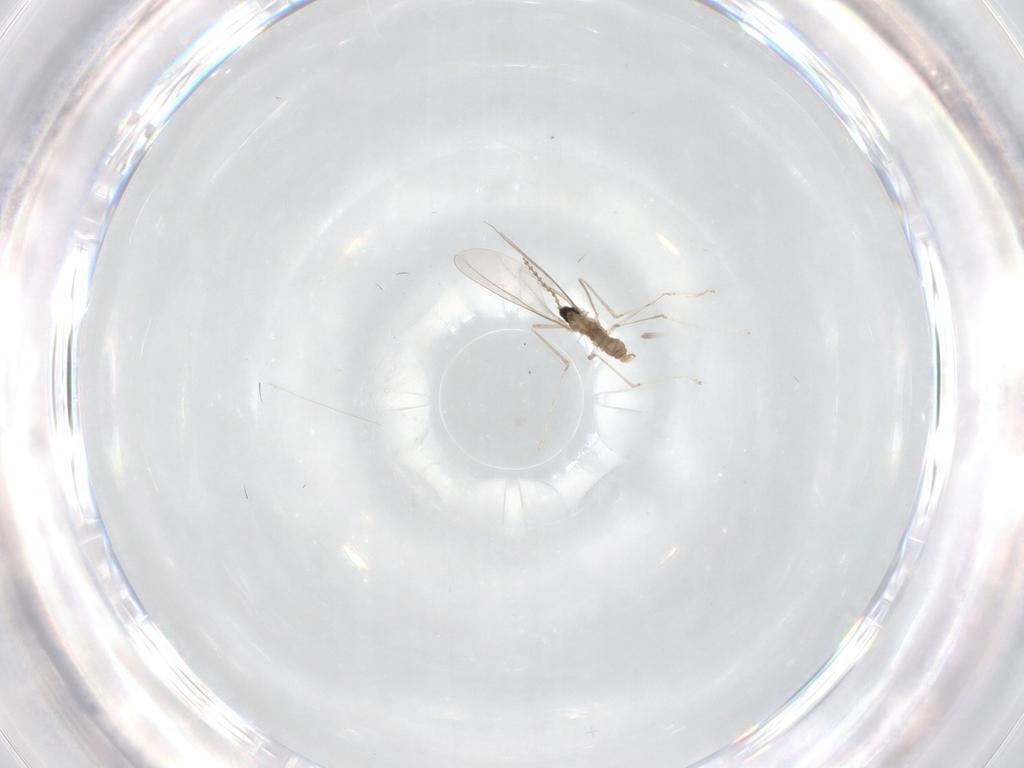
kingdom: Animalia
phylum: Arthropoda
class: Insecta
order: Diptera
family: Cecidomyiidae
